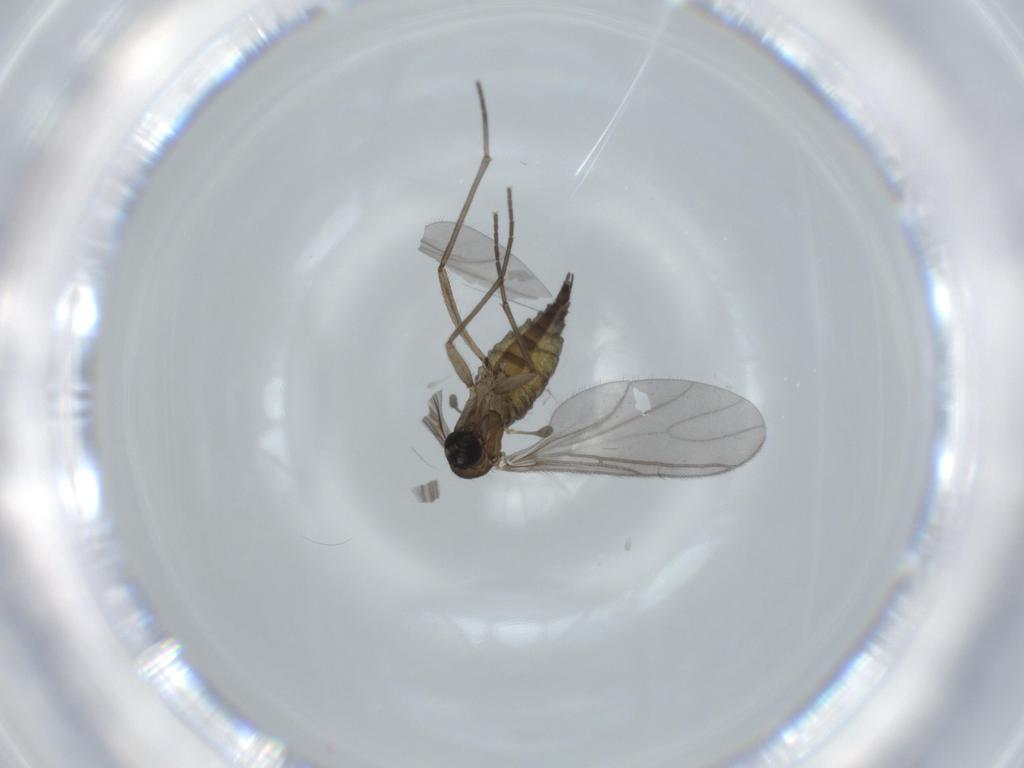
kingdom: Animalia
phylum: Arthropoda
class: Insecta
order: Diptera
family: Sciaridae
